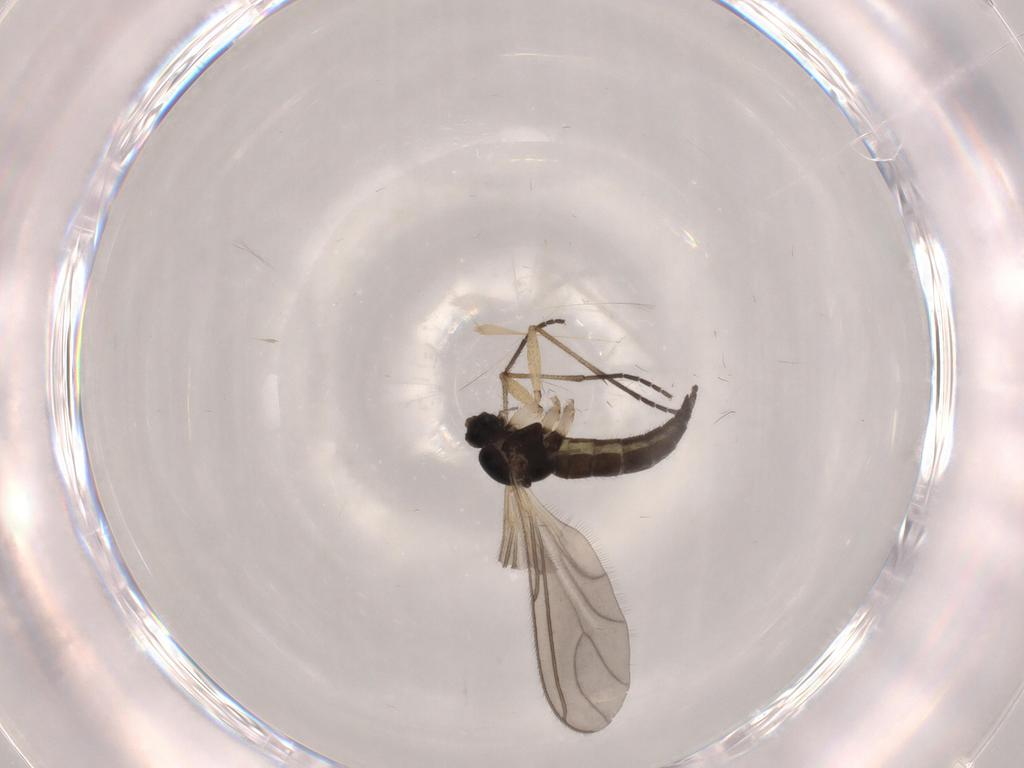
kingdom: Animalia
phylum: Arthropoda
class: Insecta
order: Diptera
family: Sciaridae
